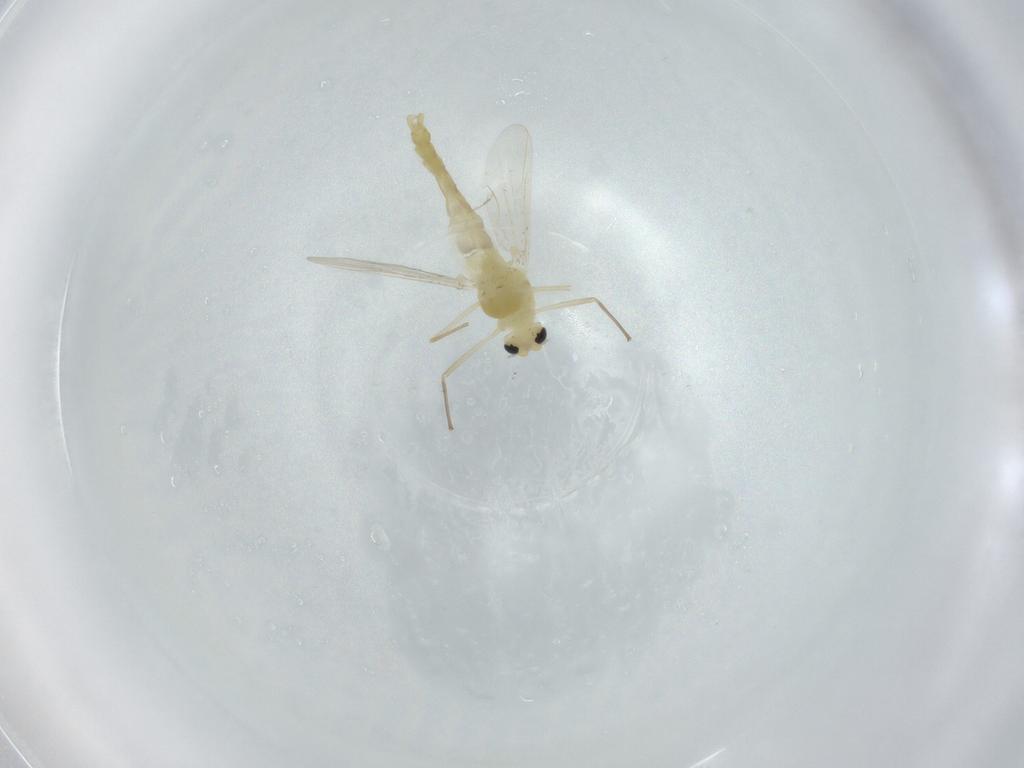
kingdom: Animalia
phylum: Arthropoda
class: Insecta
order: Diptera
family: Chironomidae
